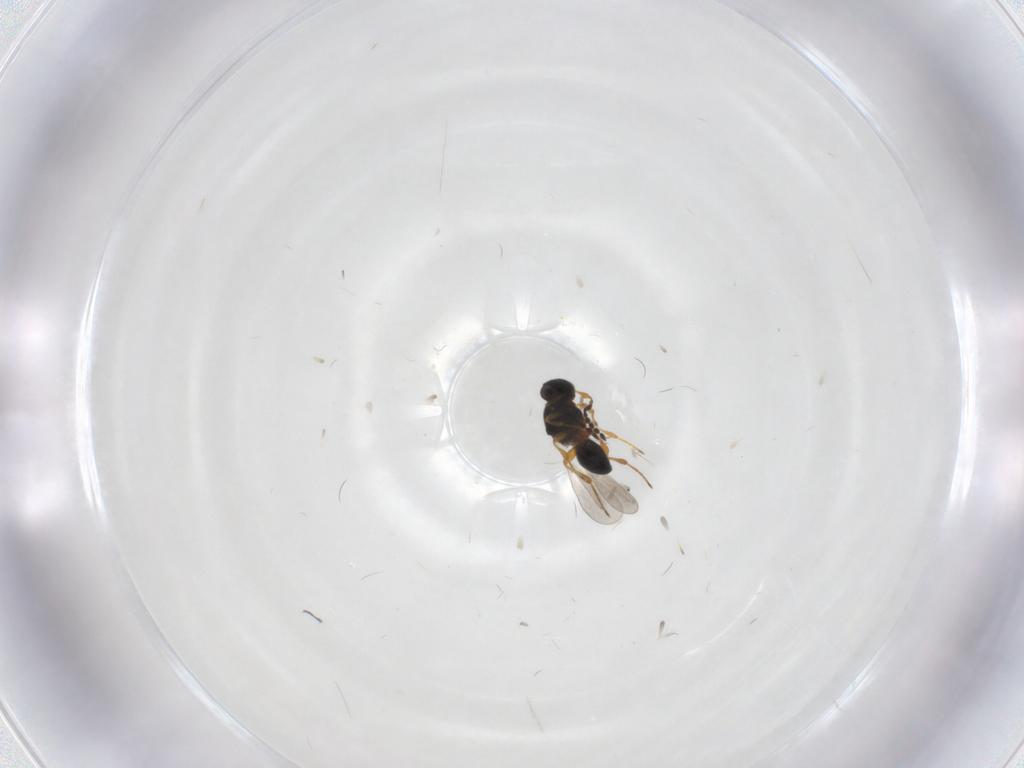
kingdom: Animalia
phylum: Arthropoda
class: Insecta
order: Hymenoptera
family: Platygastridae
